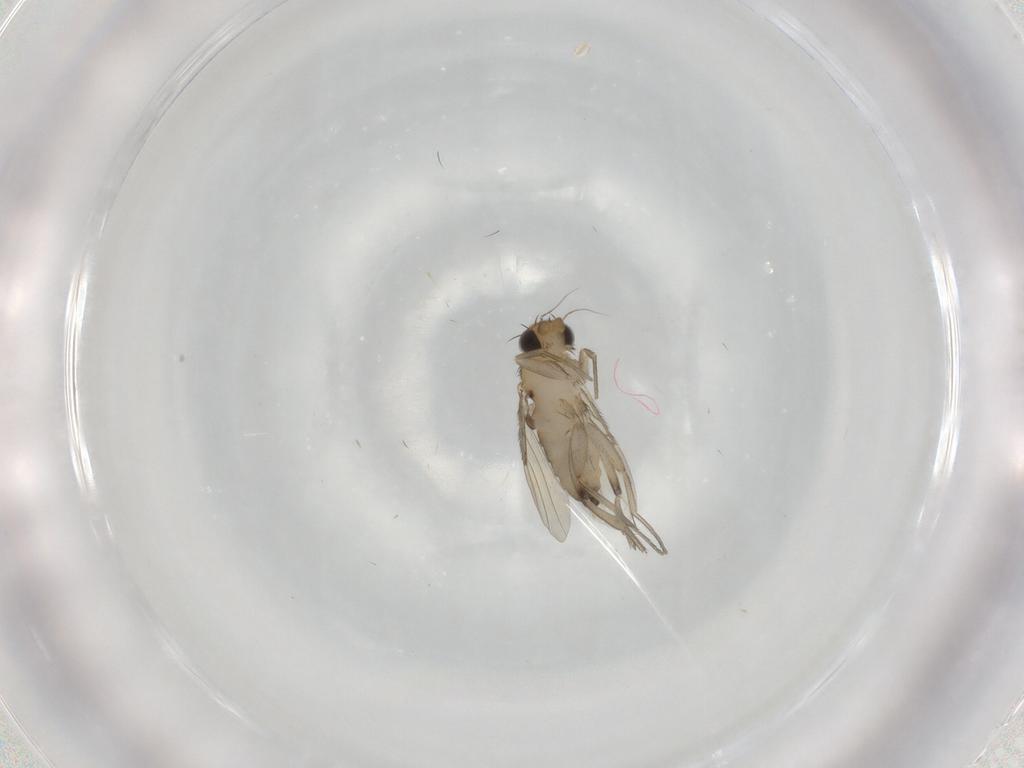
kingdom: Animalia
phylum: Arthropoda
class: Insecta
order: Diptera
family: Phoridae
